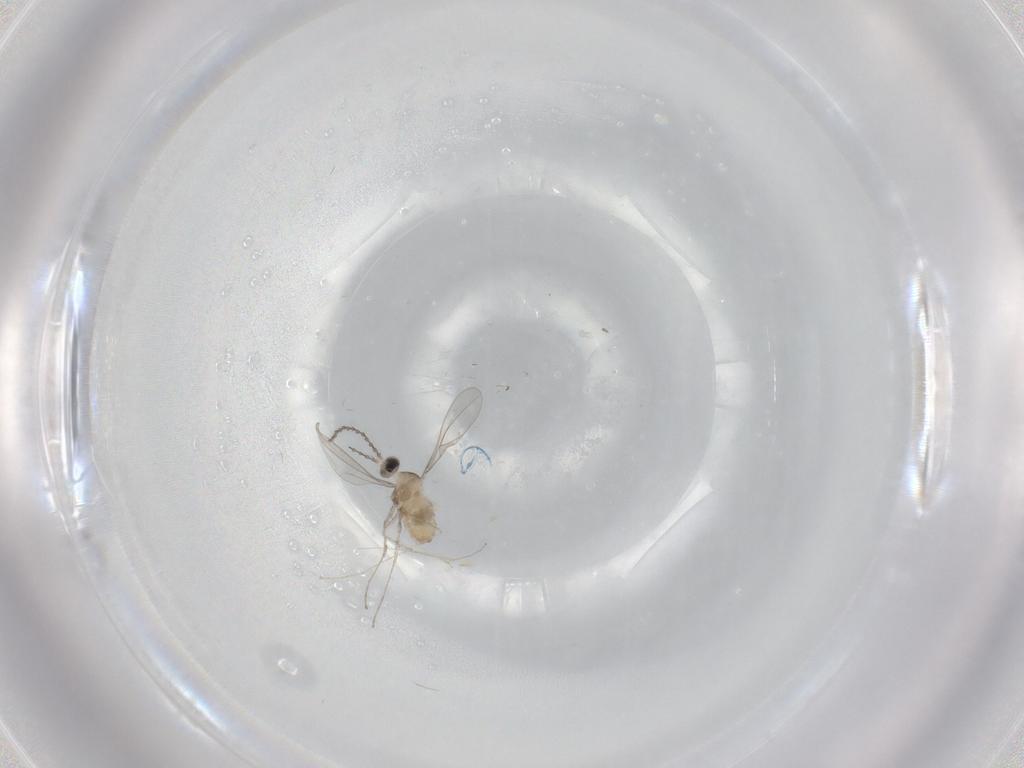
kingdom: Animalia
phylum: Arthropoda
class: Insecta
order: Diptera
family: Cecidomyiidae
